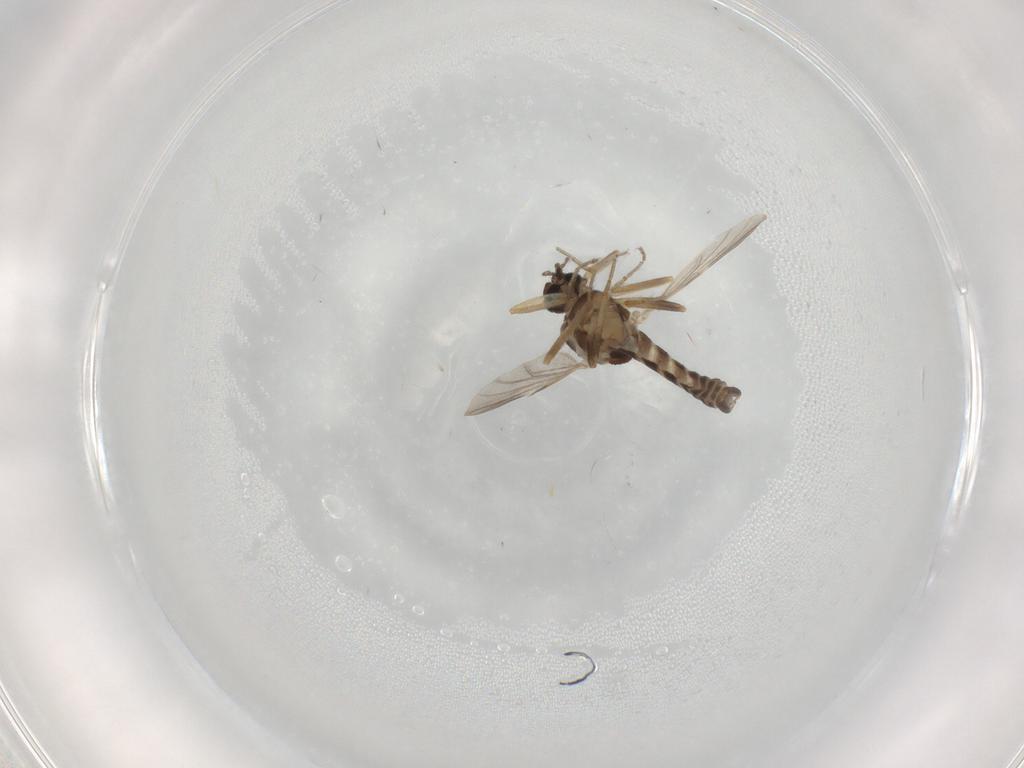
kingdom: Animalia
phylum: Arthropoda
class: Insecta
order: Diptera
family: Ceratopogonidae
